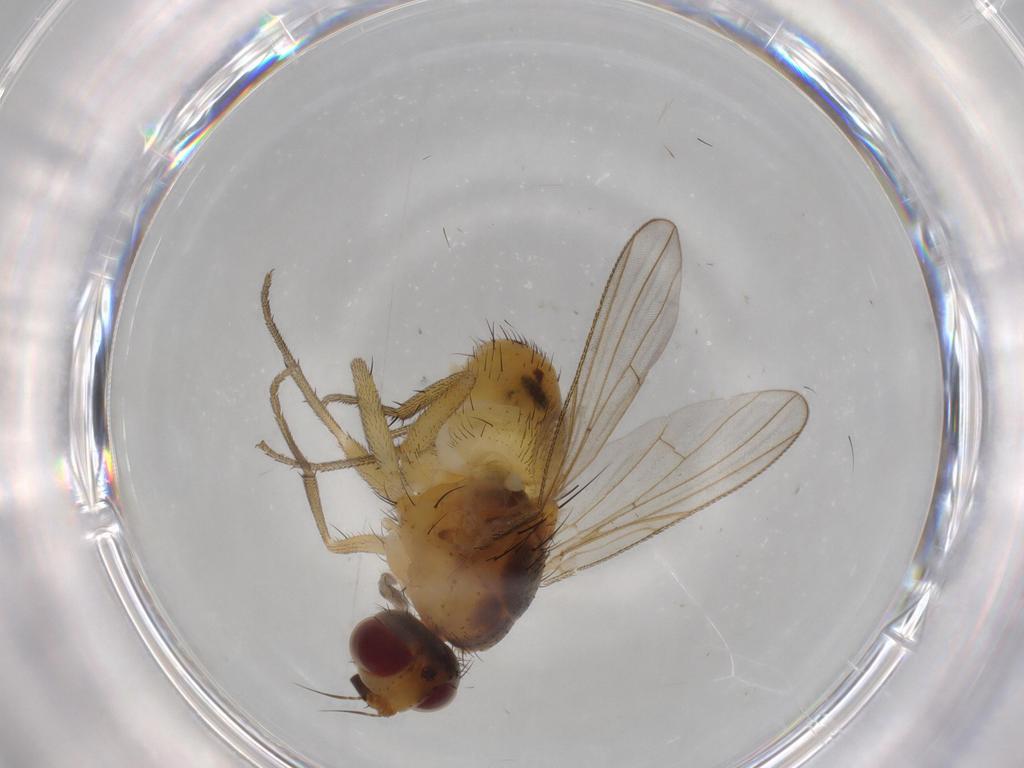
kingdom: Animalia
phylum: Arthropoda
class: Insecta
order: Diptera
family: Muscidae
